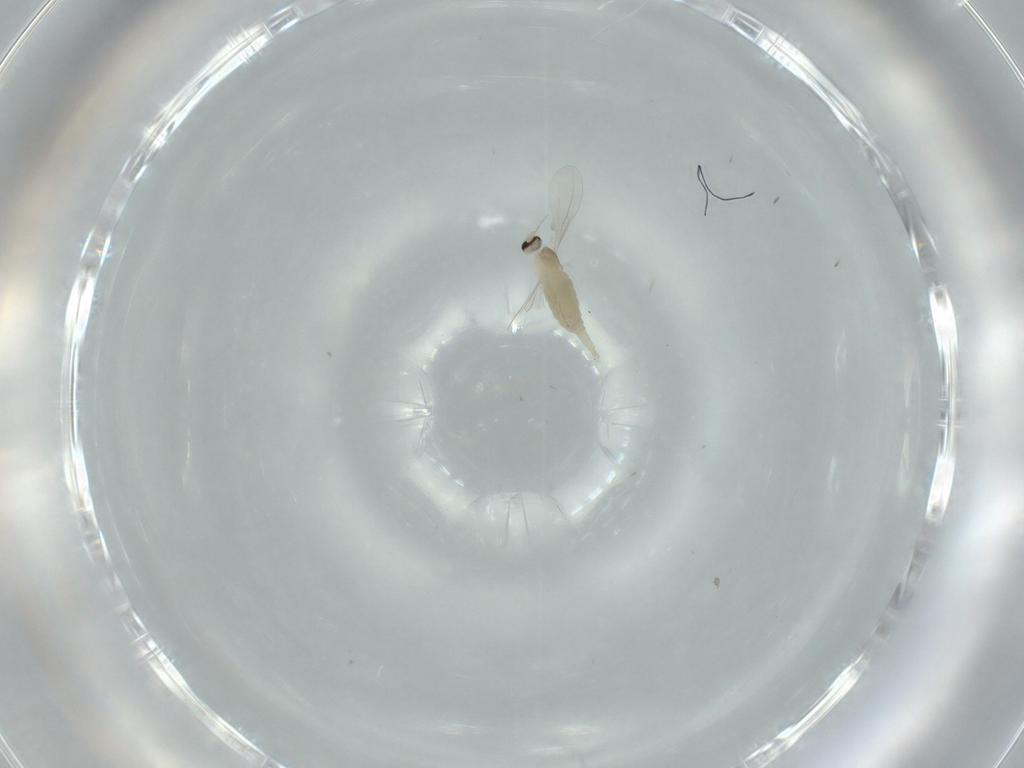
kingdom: Animalia
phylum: Arthropoda
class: Insecta
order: Diptera
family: Cecidomyiidae
